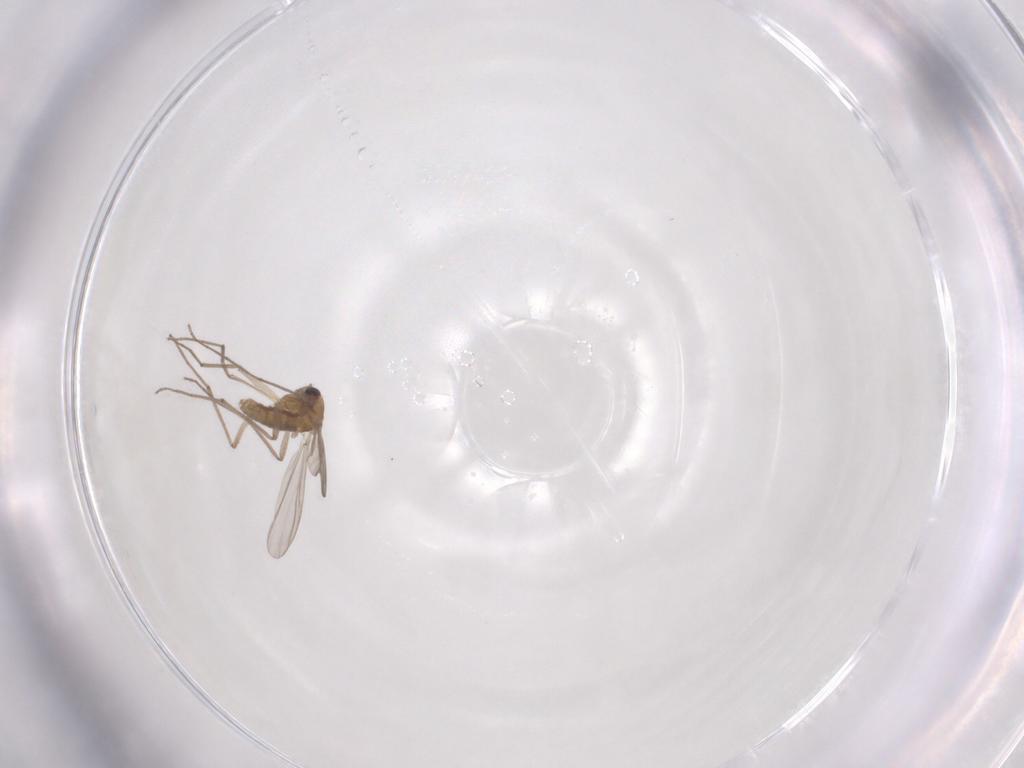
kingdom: Animalia
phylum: Arthropoda
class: Insecta
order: Diptera
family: Chironomidae
